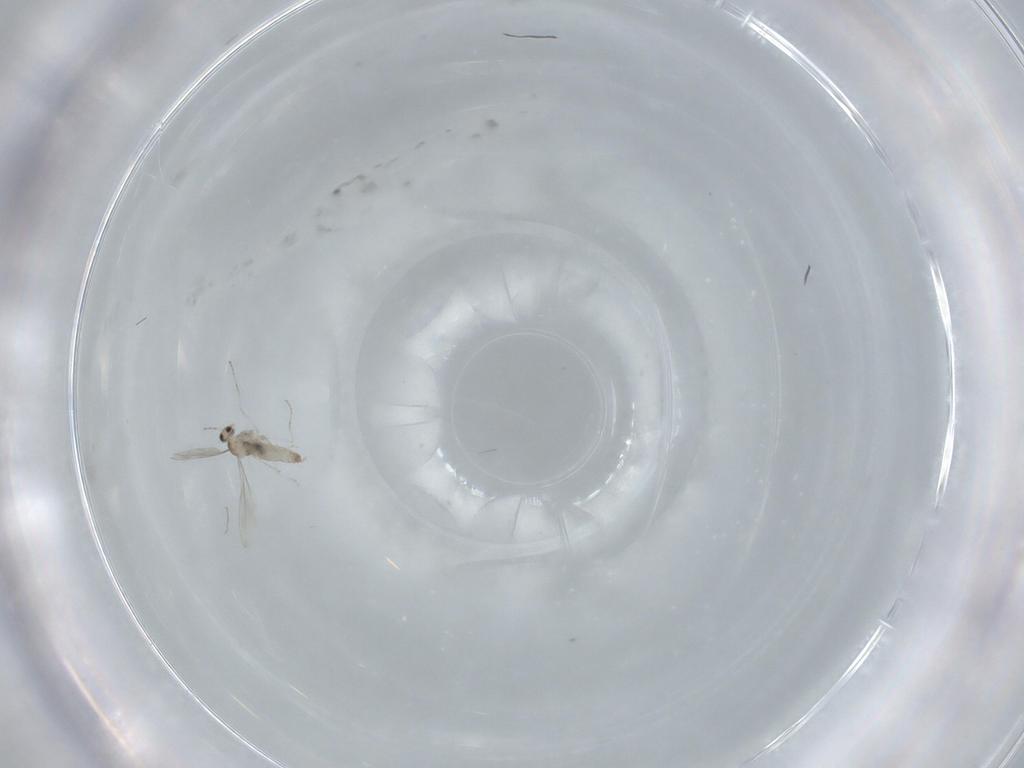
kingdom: Animalia
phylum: Arthropoda
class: Insecta
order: Diptera
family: Cecidomyiidae
